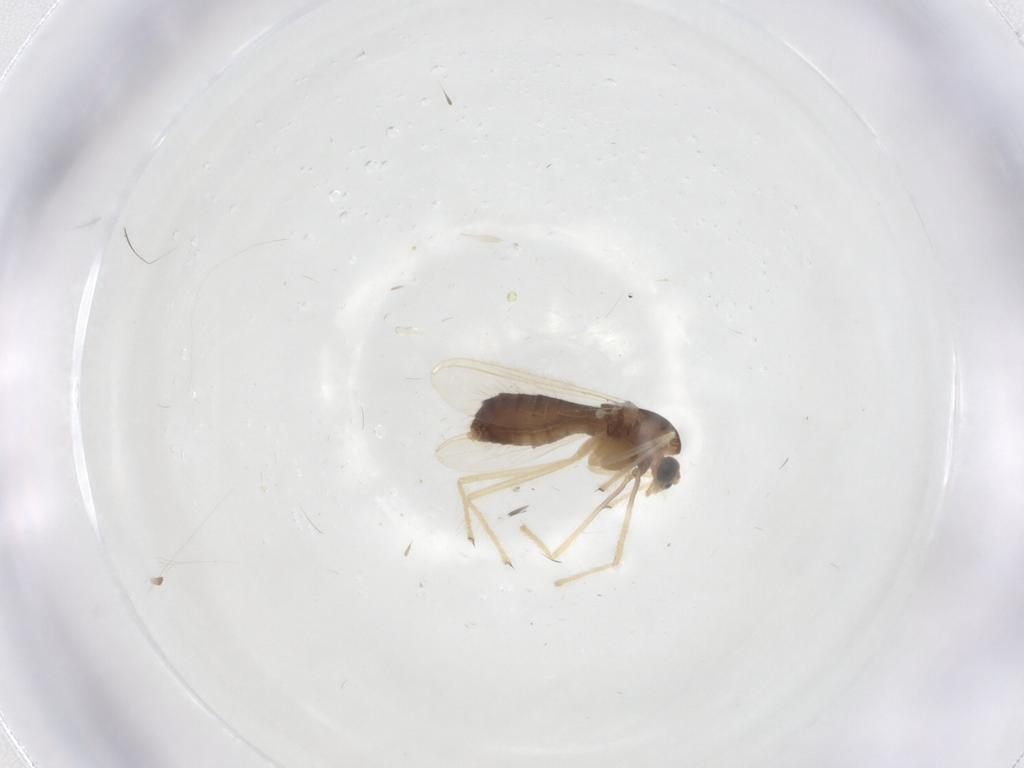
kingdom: Animalia
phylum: Arthropoda
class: Insecta
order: Diptera
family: Chironomidae
